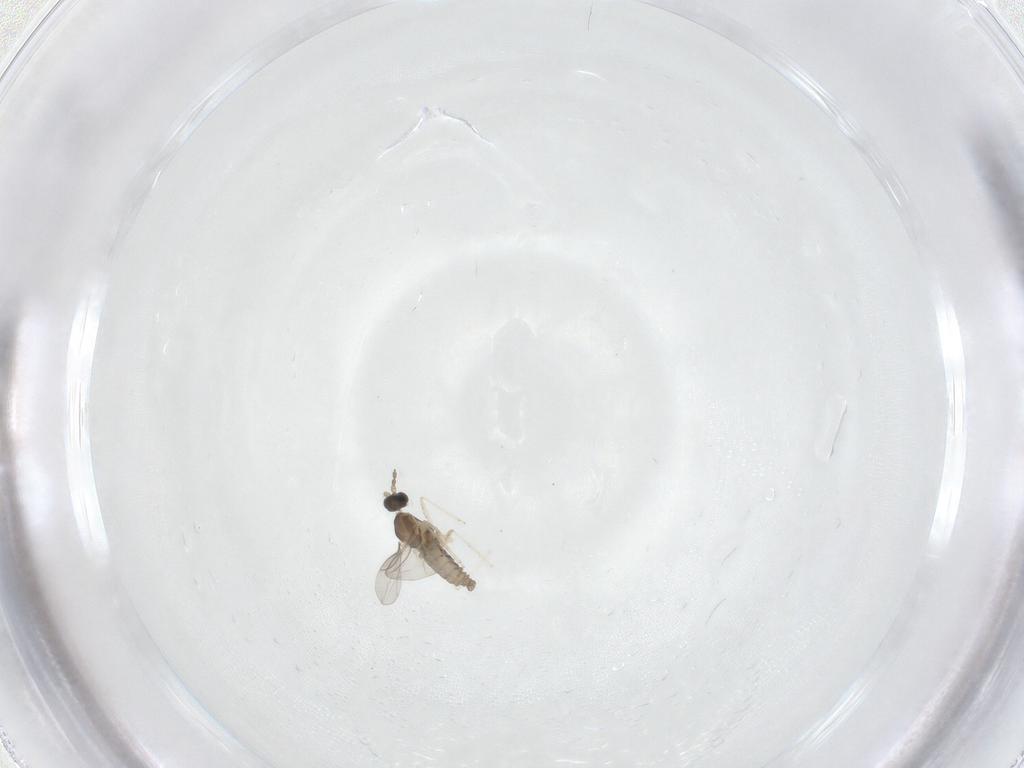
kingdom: Animalia
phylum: Arthropoda
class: Insecta
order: Diptera
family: Cecidomyiidae
